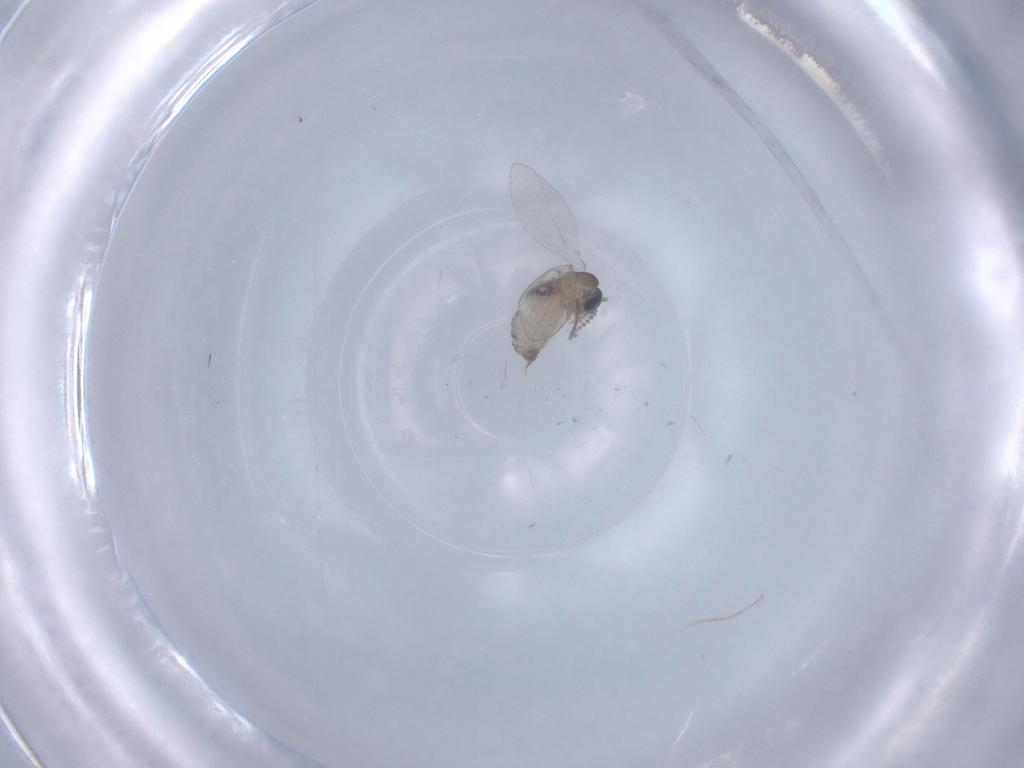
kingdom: Animalia
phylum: Arthropoda
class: Insecta
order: Diptera
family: Psychodidae
